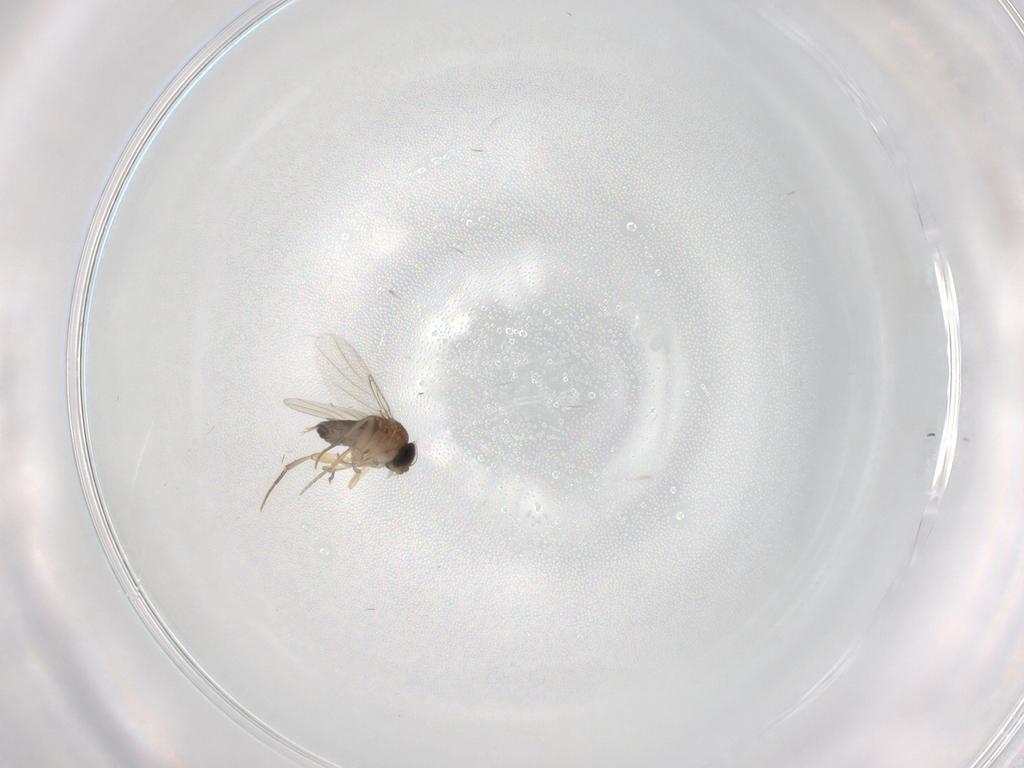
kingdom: Animalia
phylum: Arthropoda
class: Insecta
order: Diptera
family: Phoridae
